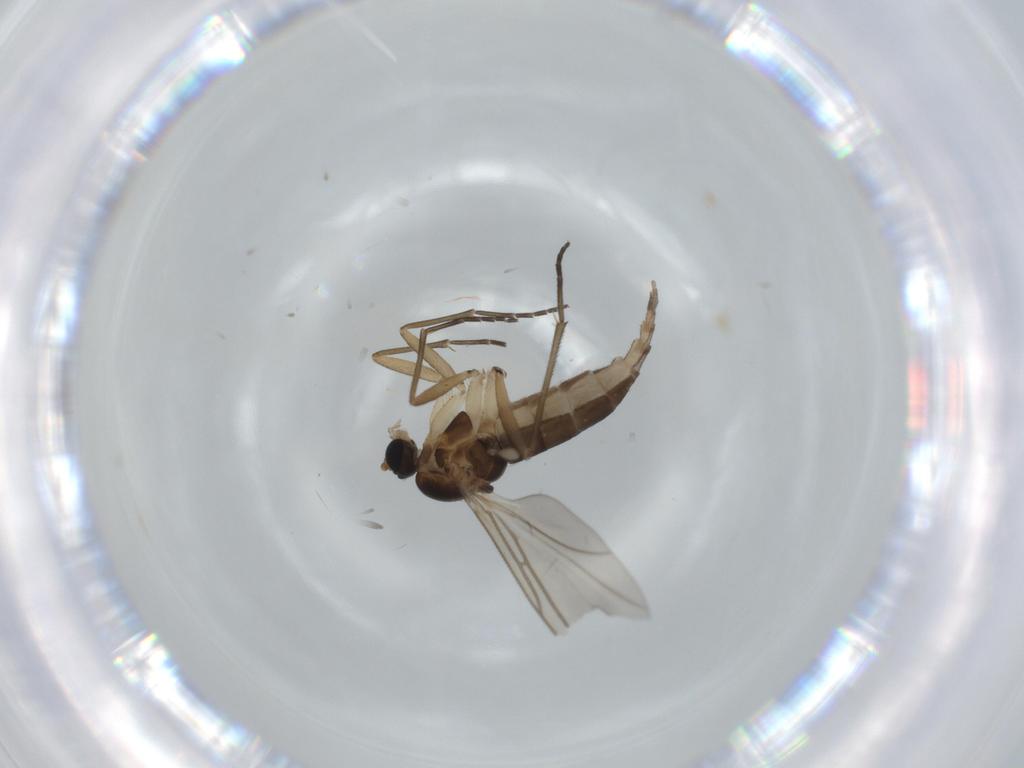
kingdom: Animalia
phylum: Arthropoda
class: Insecta
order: Diptera
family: Sciaridae
